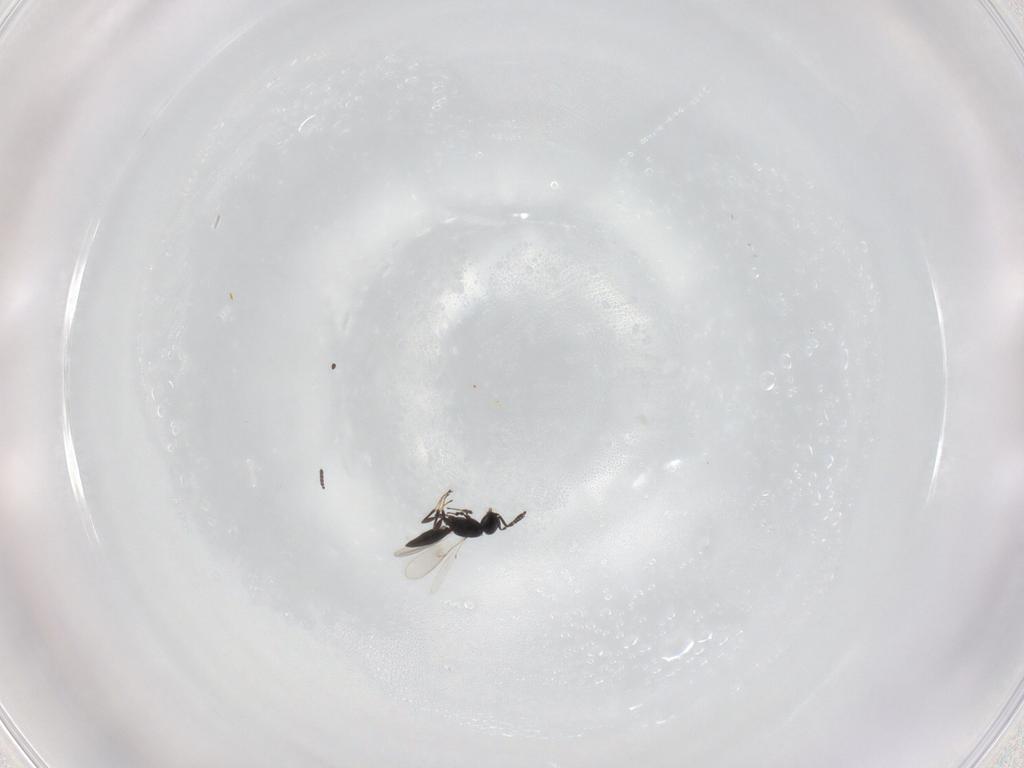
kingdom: Animalia
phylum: Arthropoda
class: Insecta
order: Hymenoptera
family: Scelionidae
